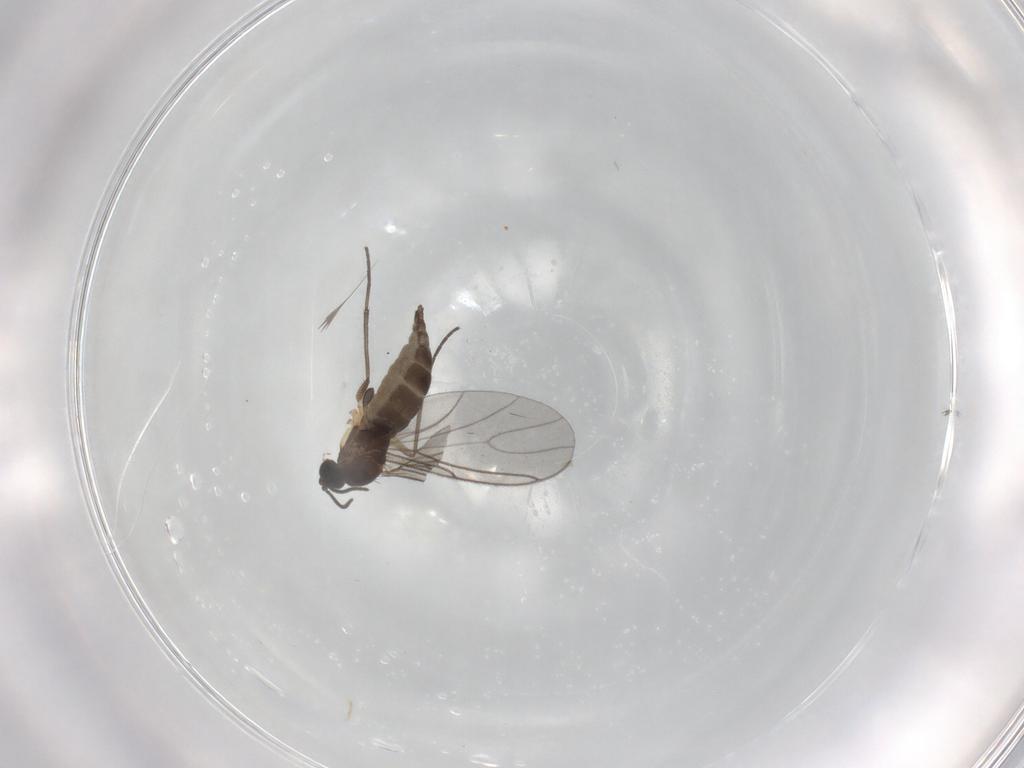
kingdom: Animalia
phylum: Arthropoda
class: Insecta
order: Diptera
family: Sciaridae
